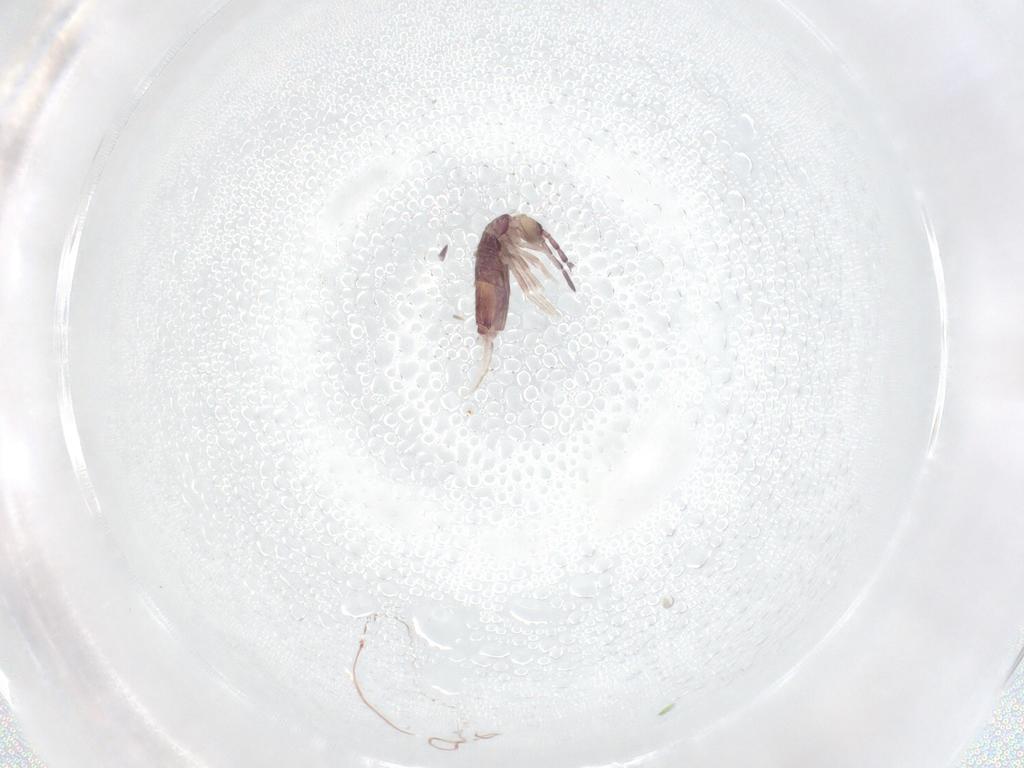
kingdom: Animalia
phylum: Arthropoda
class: Collembola
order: Entomobryomorpha
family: Entomobryidae
